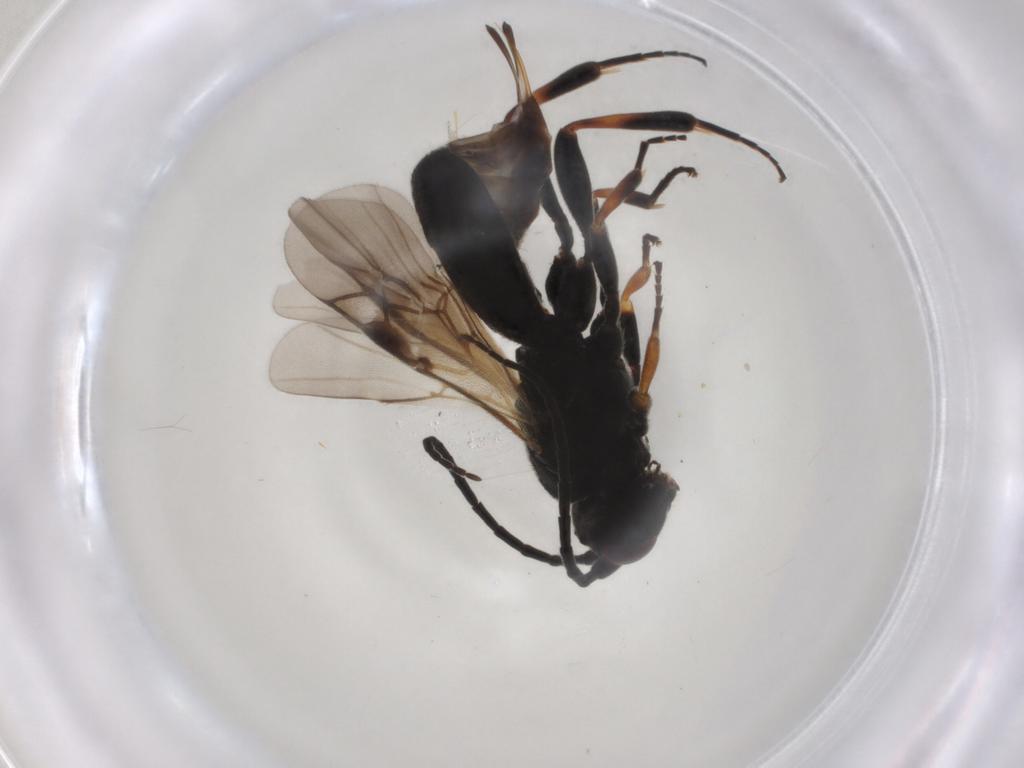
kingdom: Animalia
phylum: Arthropoda
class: Insecta
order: Hymenoptera
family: Braconidae
